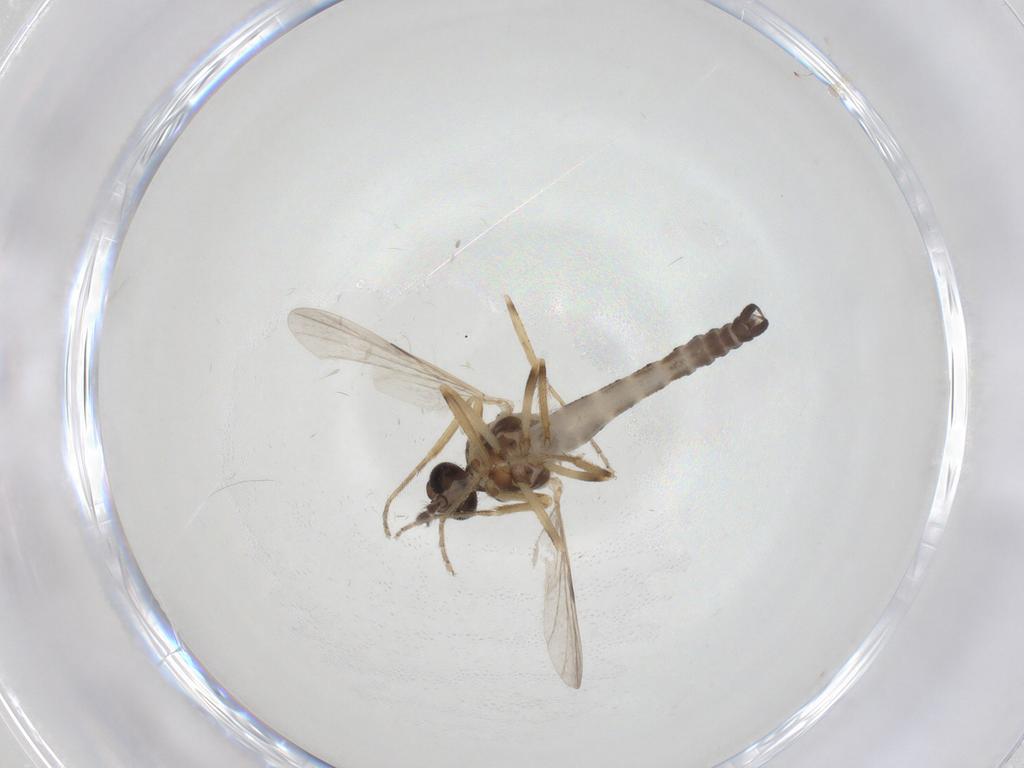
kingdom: Animalia
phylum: Arthropoda
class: Insecta
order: Diptera
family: Chironomidae
